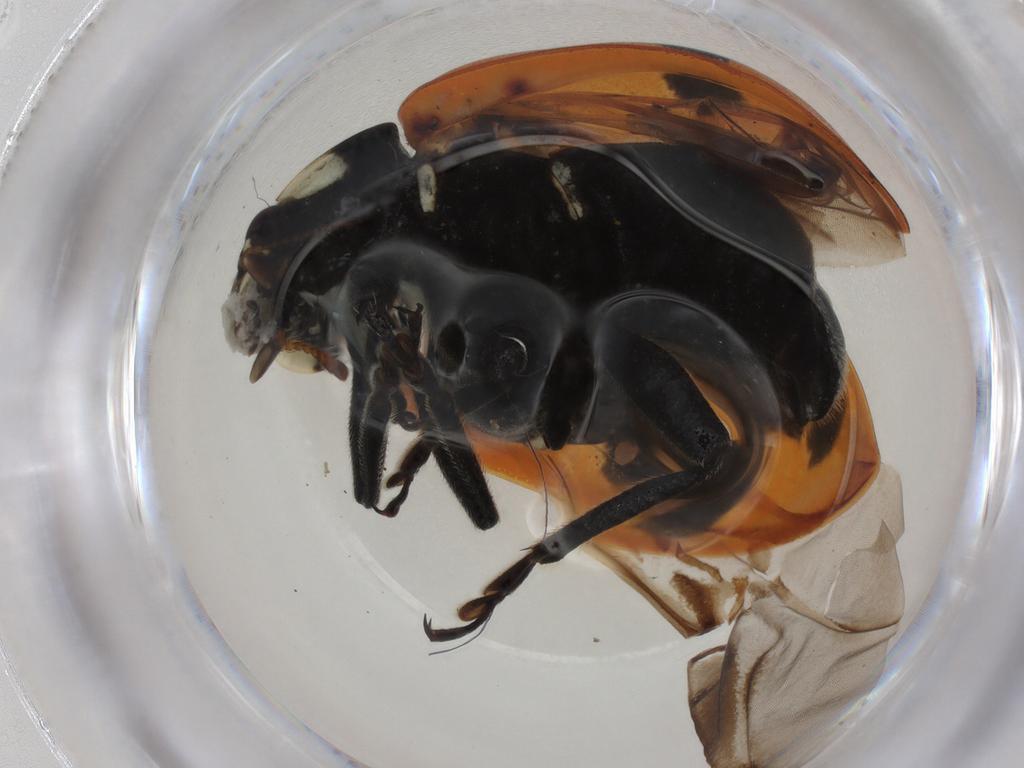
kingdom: Animalia
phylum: Arthropoda
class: Insecta
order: Coleoptera
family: Coccinellidae
